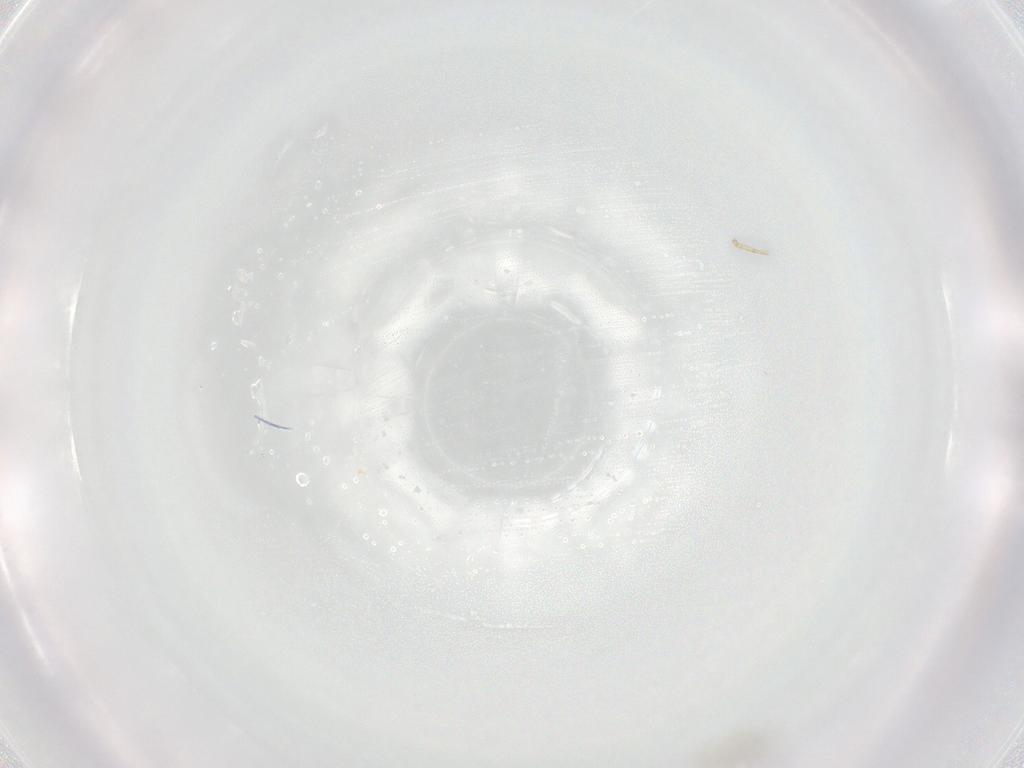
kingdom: Animalia
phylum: Arthropoda
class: Collembola
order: Entomobryomorpha
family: Entomobryidae
